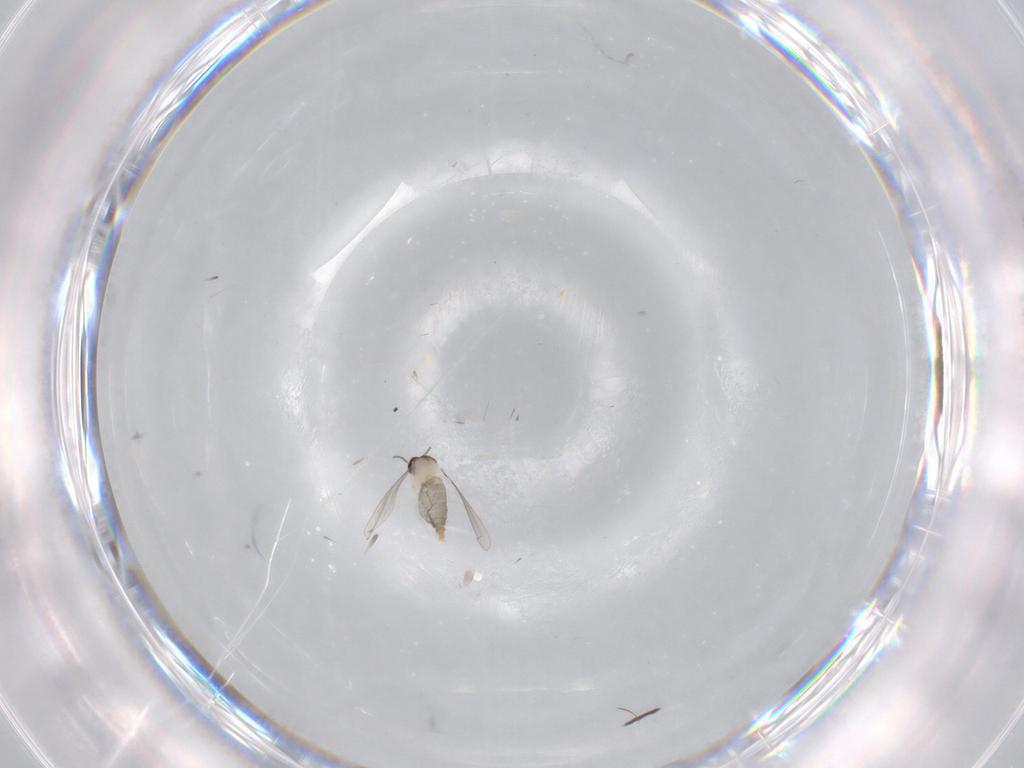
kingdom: Animalia
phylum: Arthropoda
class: Insecta
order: Diptera
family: Cecidomyiidae
